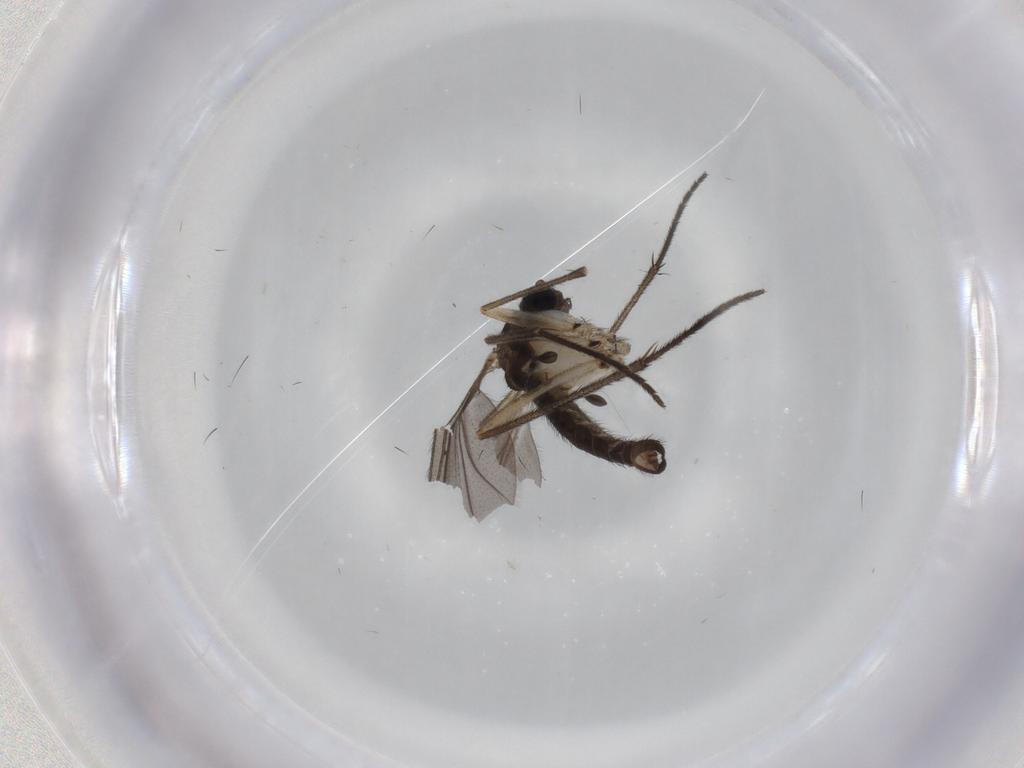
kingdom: Animalia
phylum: Arthropoda
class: Insecta
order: Diptera
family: Sciaridae
